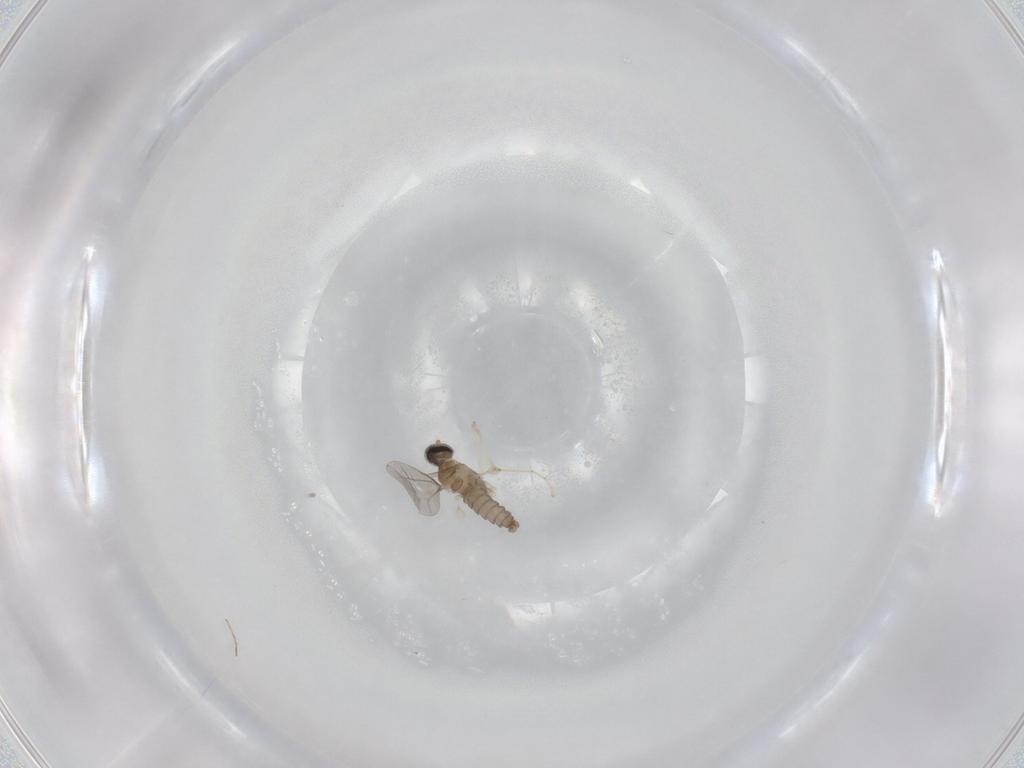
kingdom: Animalia
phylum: Arthropoda
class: Insecta
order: Diptera
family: Cecidomyiidae
